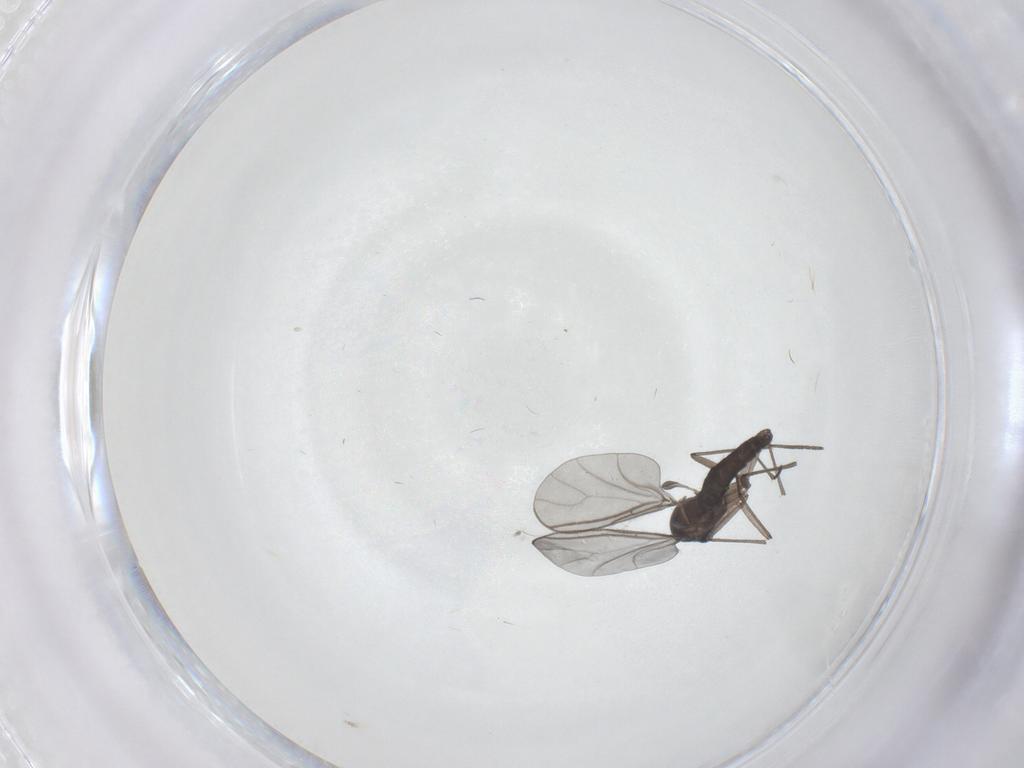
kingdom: Animalia
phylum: Arthropoda
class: Insecta
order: Diptera
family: Sciaridae
